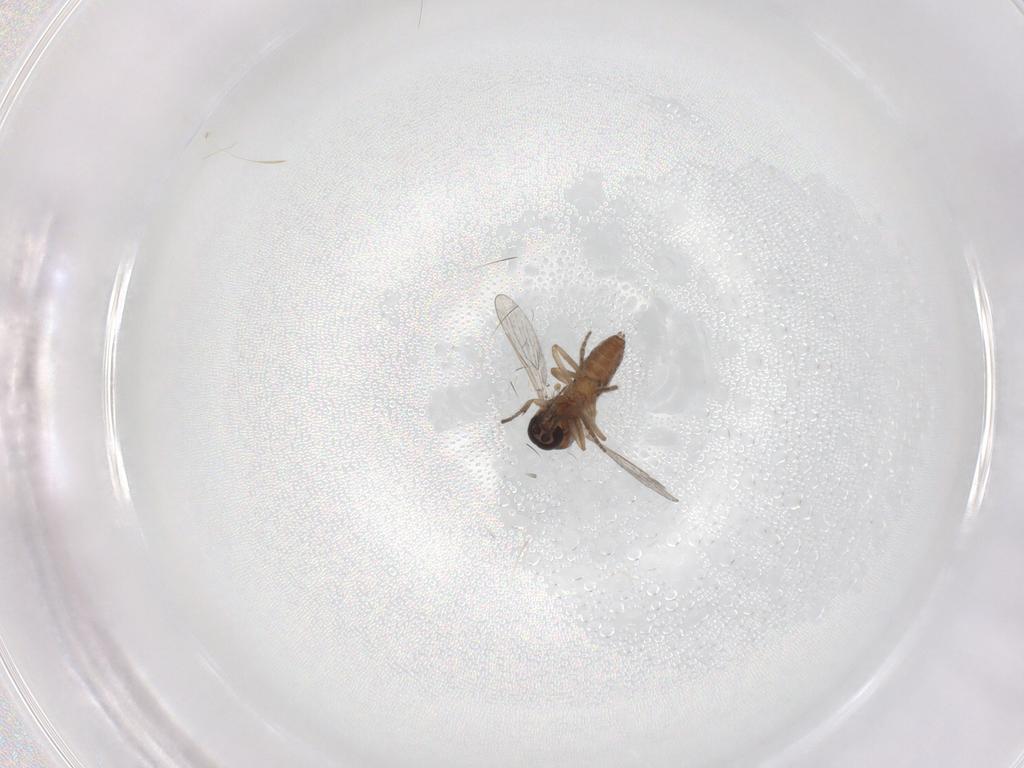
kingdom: Animalia
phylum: Arthropoda
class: Insecta
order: Diptera
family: Ceratopogonidae
